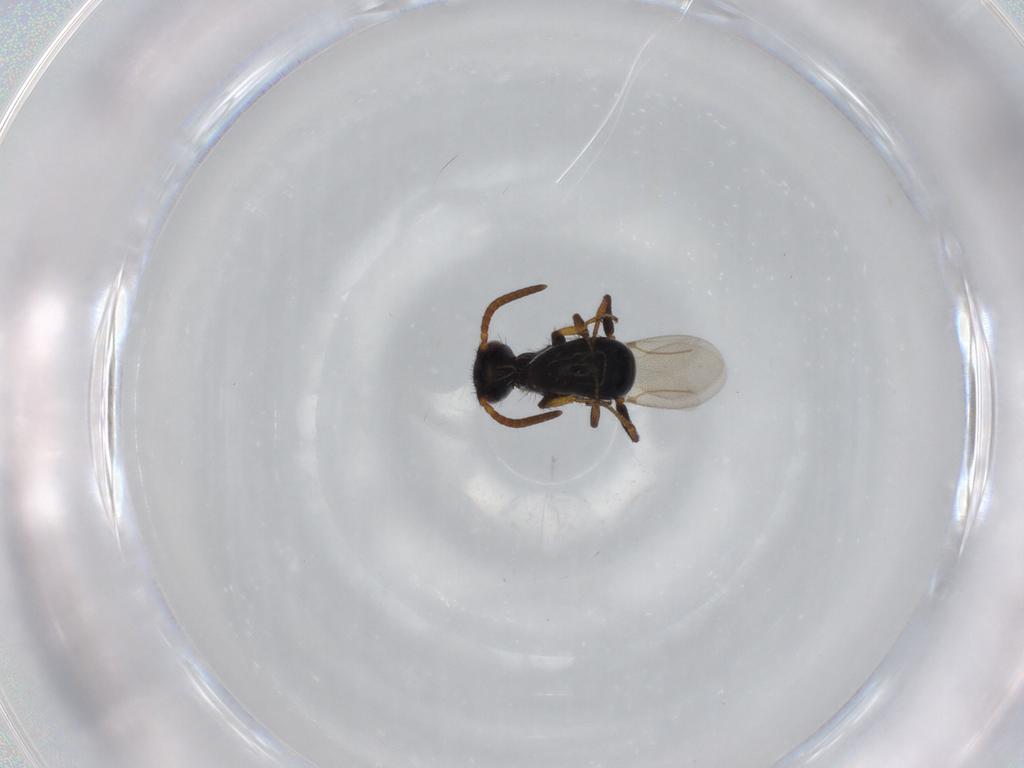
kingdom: Animalia
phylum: Arthropoda
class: Insecta
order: Hymenoptera
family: Bethylidae
